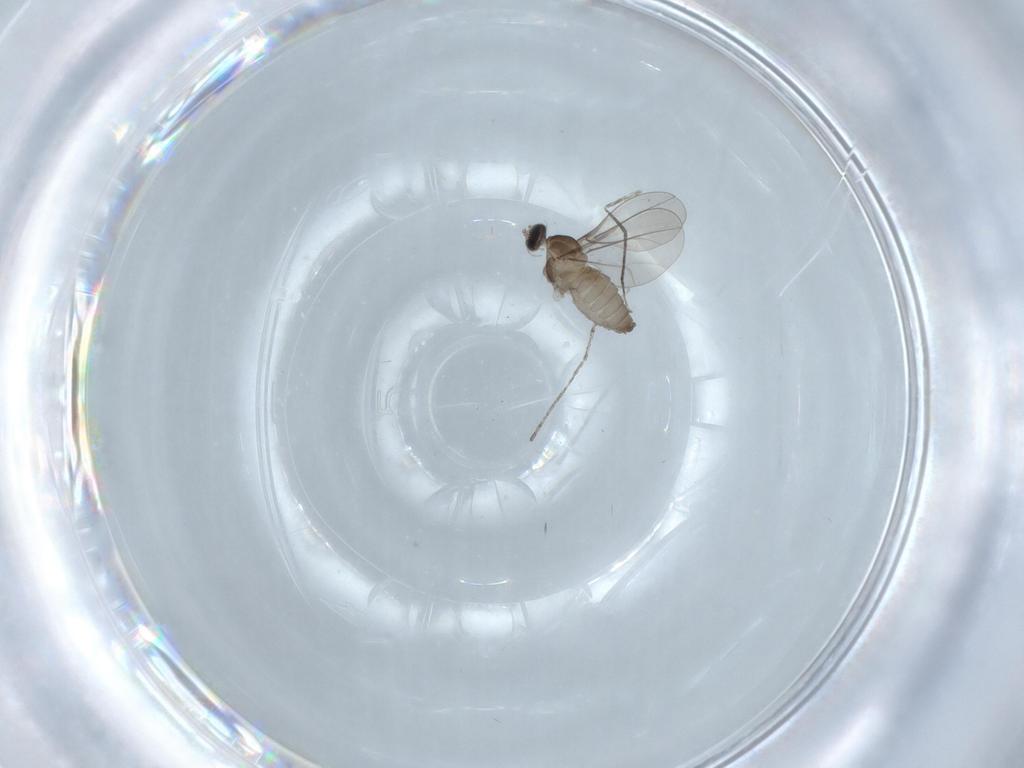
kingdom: Animalia
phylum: Arthropoda
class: Insecta
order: Diptera
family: Cecidomyiidae
